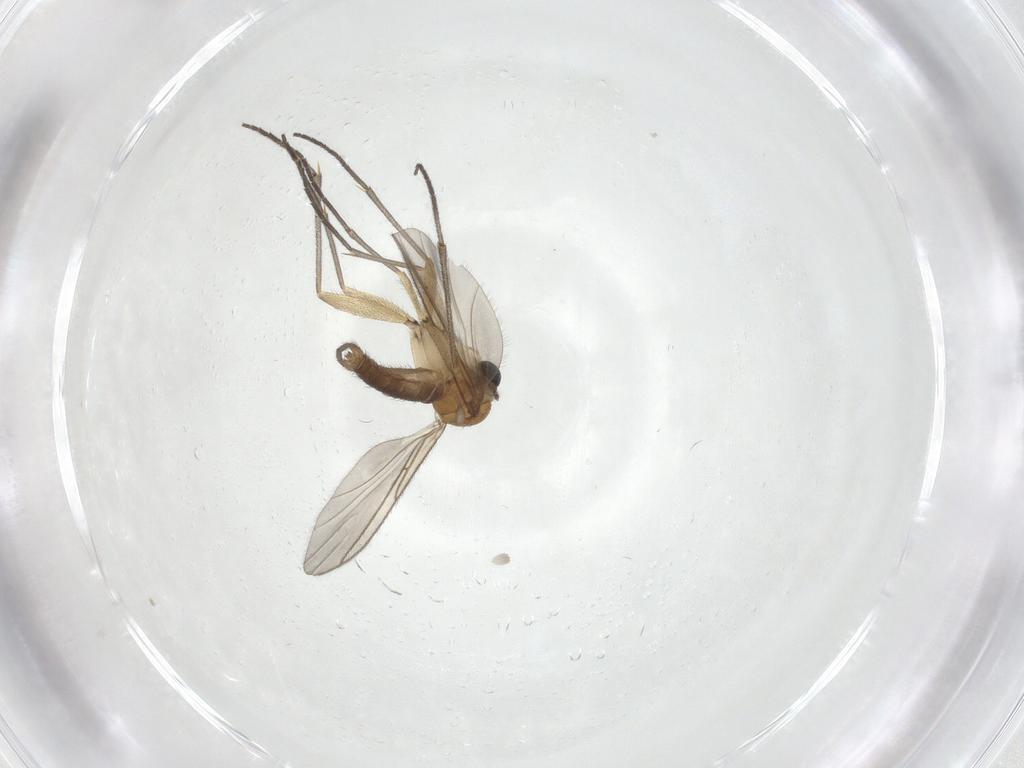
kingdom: Animalia
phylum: Arthropoda
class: Insecta
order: Diptera
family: Sciaridae
